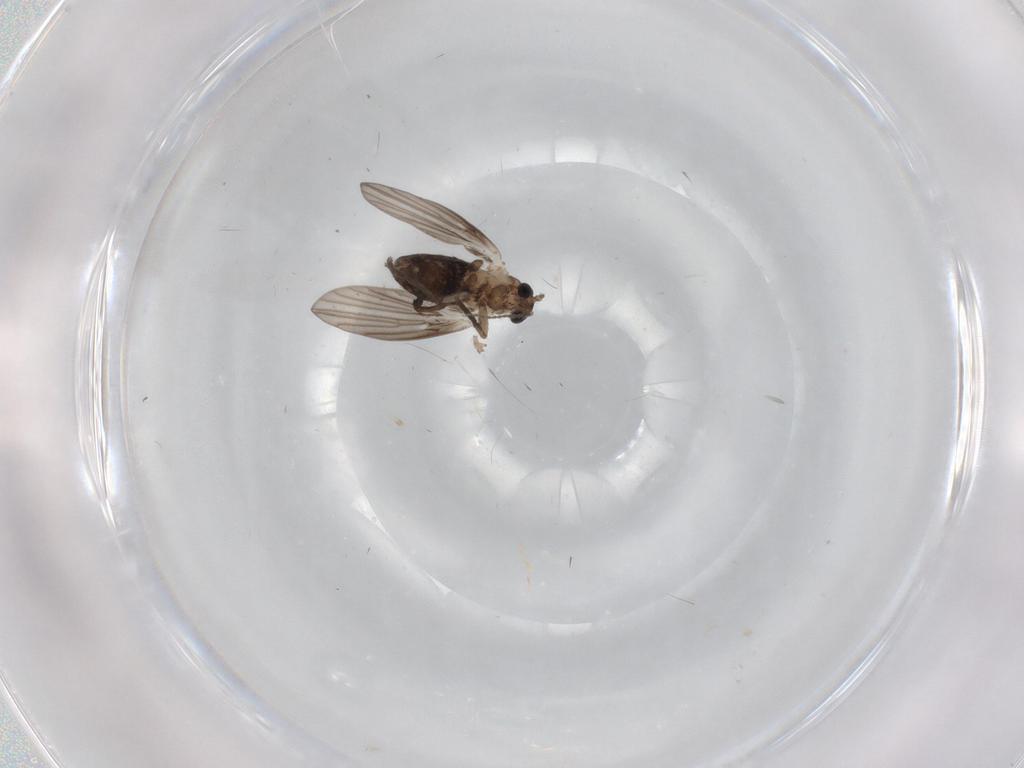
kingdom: Animalia
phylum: Arthropoda
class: Insecta
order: Diptera
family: Psychodidae
